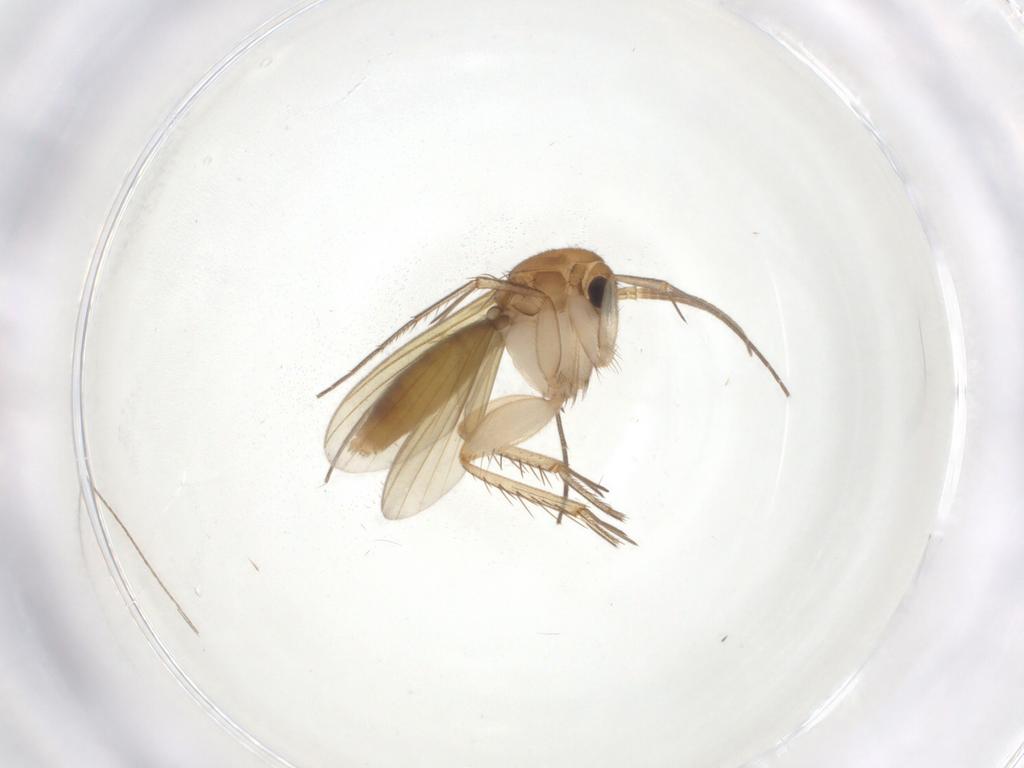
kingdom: Animalia
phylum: Arthropoda
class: Insecta
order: Diptera
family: Mycetophilidae
